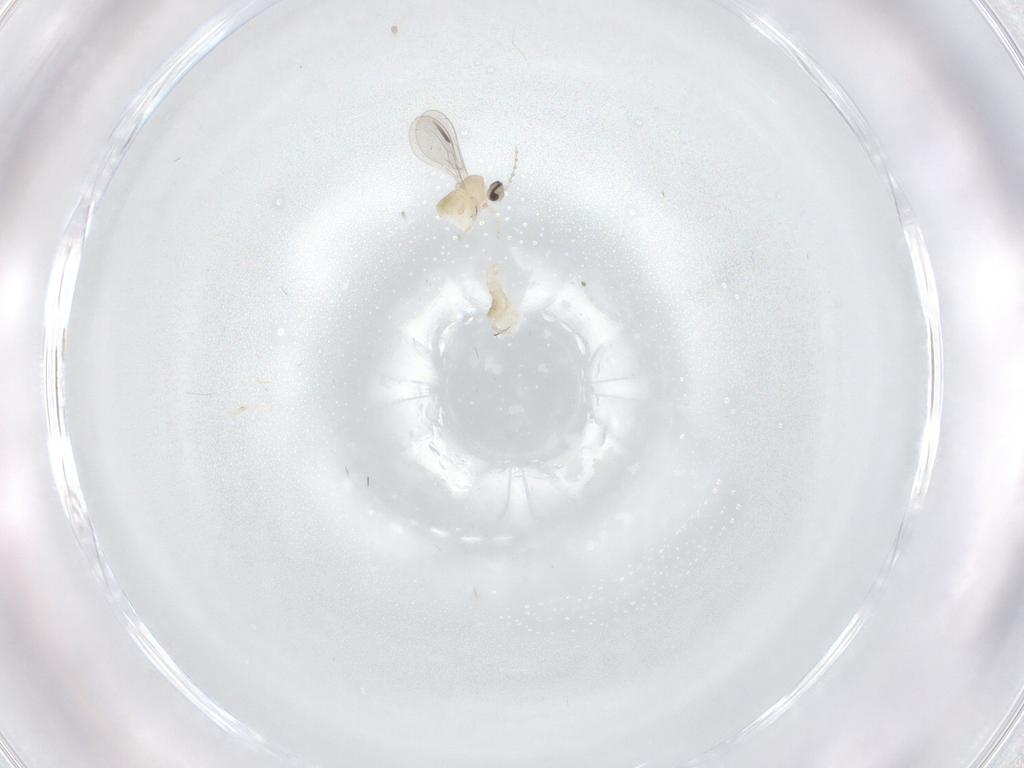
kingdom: Animalia
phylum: Arthropoda
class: Insecta
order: Diptera
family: Cecidomyiidae
